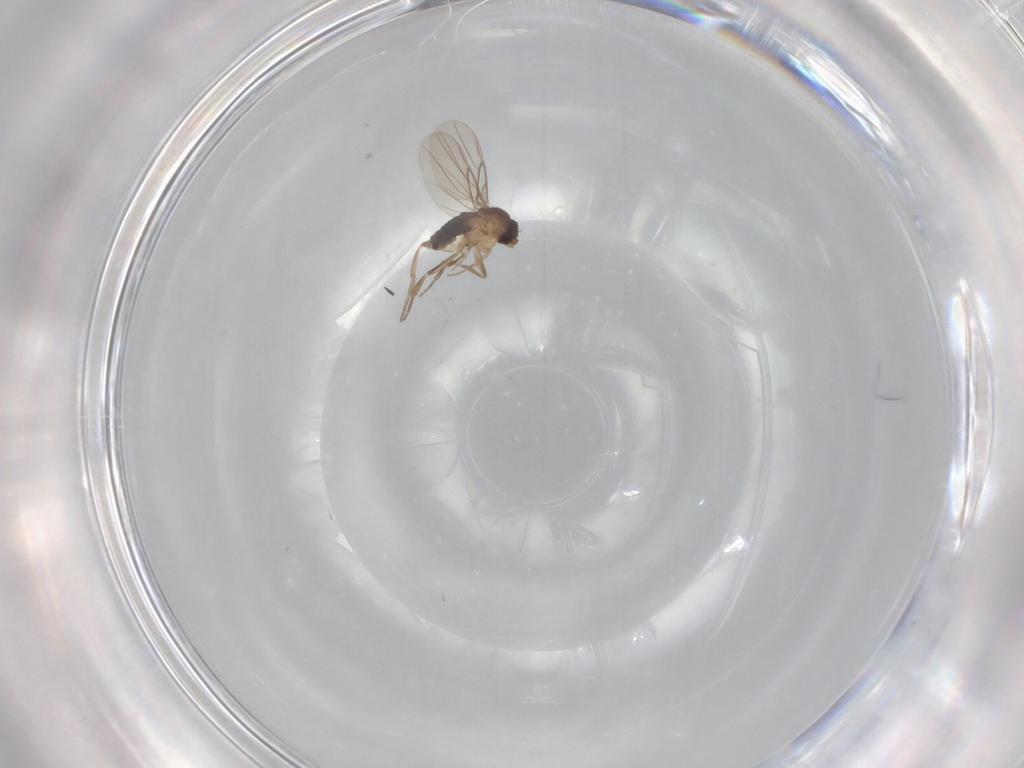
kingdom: Animalia
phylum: Arthropoda
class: Insecta
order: Diptera
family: Phoridae
